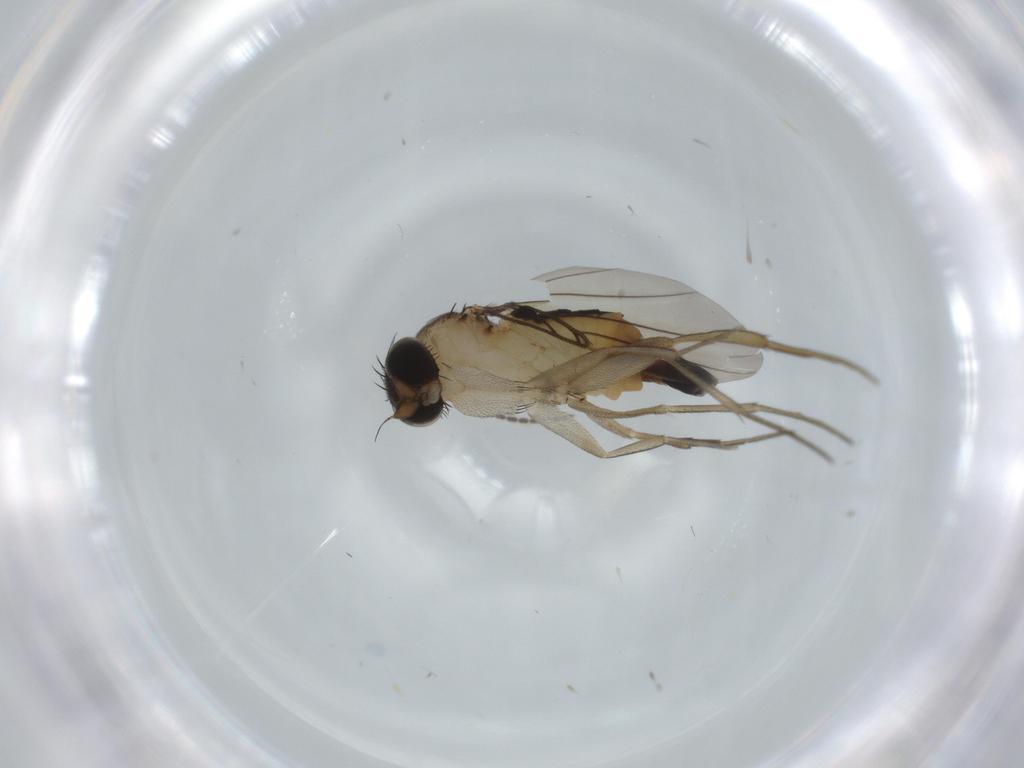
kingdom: Animalia
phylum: Arthropoda
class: Insecta
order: Diptera
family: Phoridae
